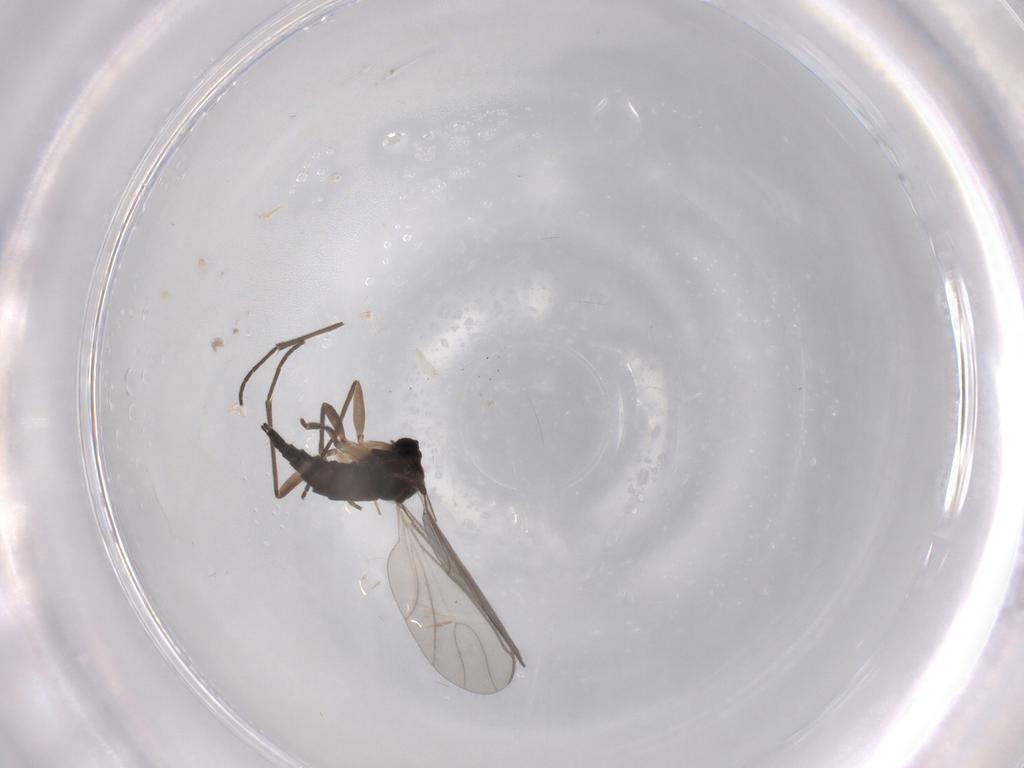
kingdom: Animalia
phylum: Arthropoda
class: Insecta
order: Diptera
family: Sciaridae
